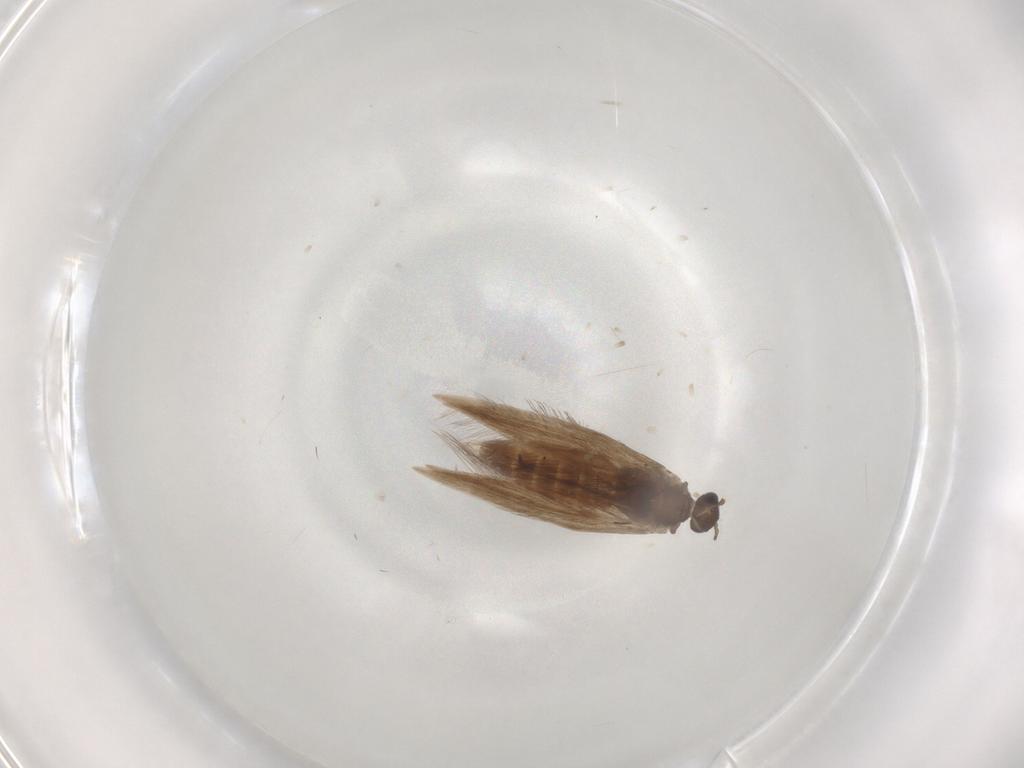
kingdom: Animalia
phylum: Arthropoda
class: Insecta
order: Trichoptera
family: Hydroptilidae
